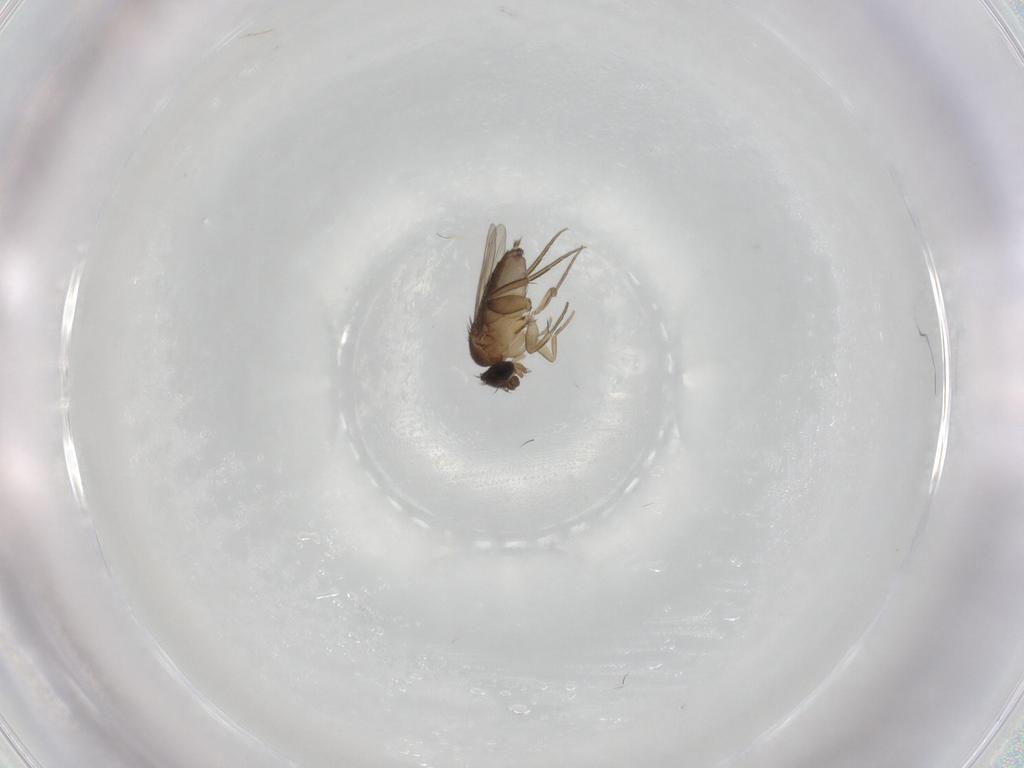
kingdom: Animalia
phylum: Arthropoda
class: Insecta
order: Diptera
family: Phoridae
